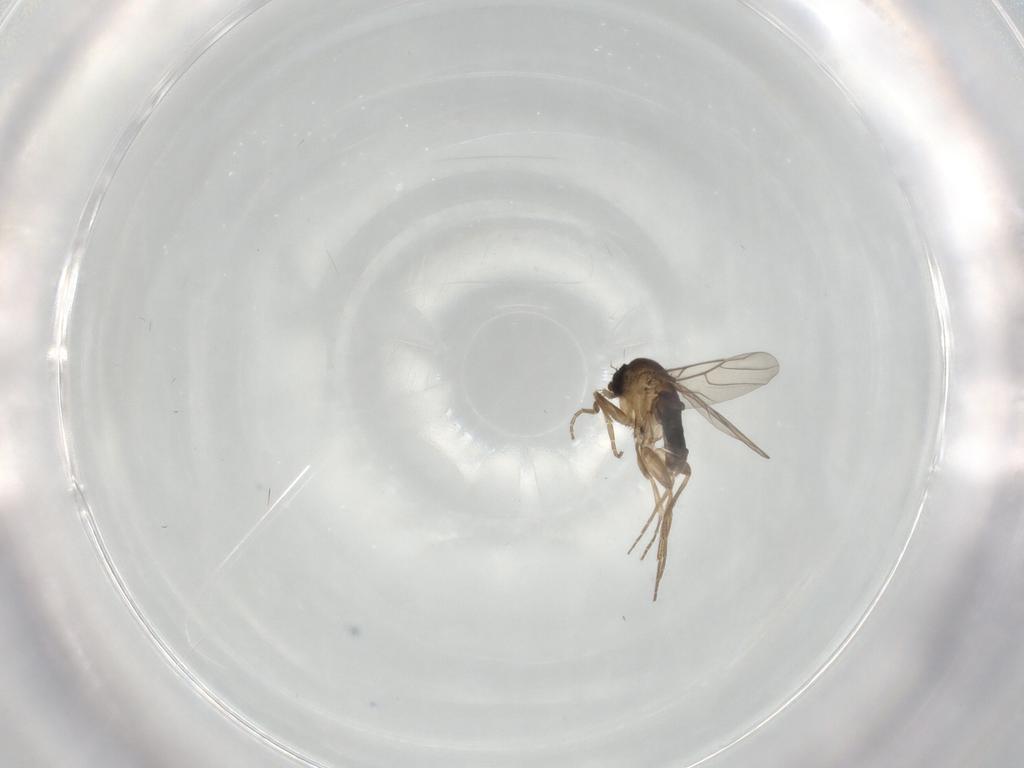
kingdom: Animalia
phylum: Arthropoda
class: Insecta
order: Diptera
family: Phoridae
